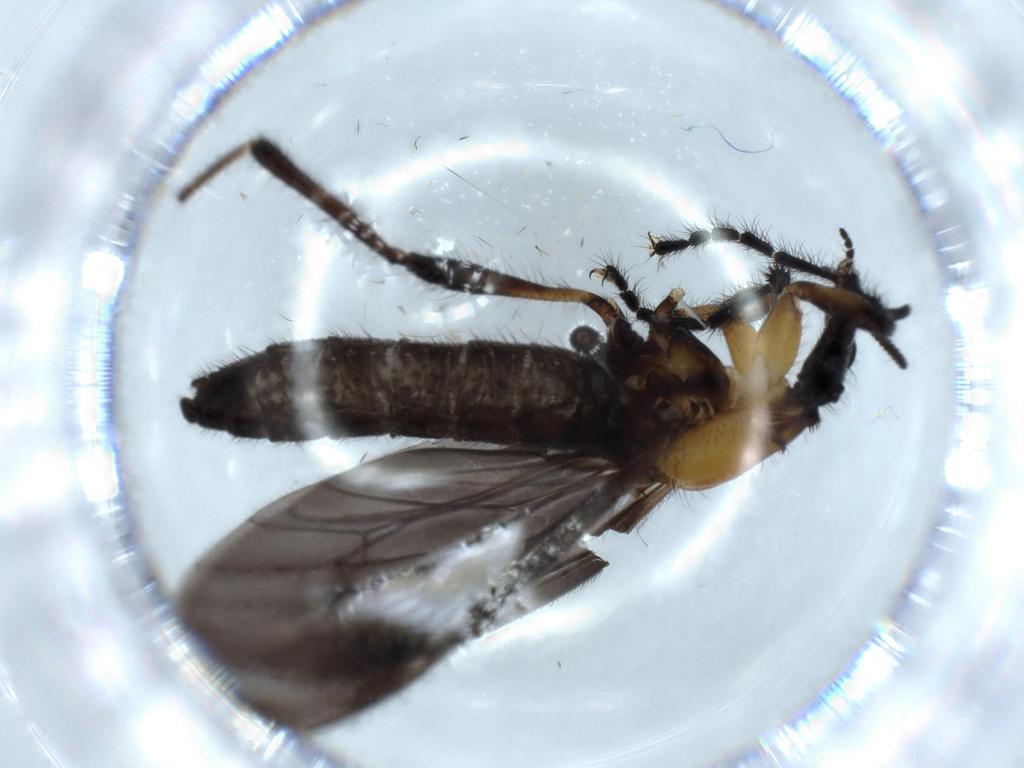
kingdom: Animalia
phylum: Arthropoda
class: Insecta
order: Diptera
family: Bibionidae
